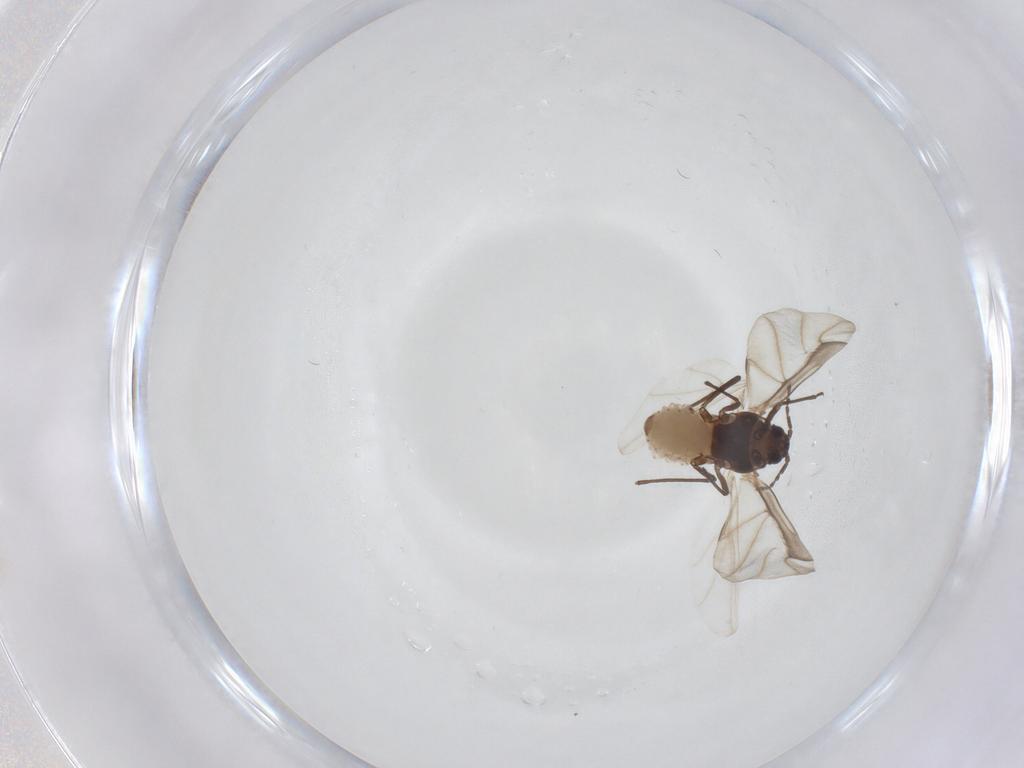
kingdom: Animalia
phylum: Arthropoda
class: Insecta
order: Hemiptera
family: Aphididae
